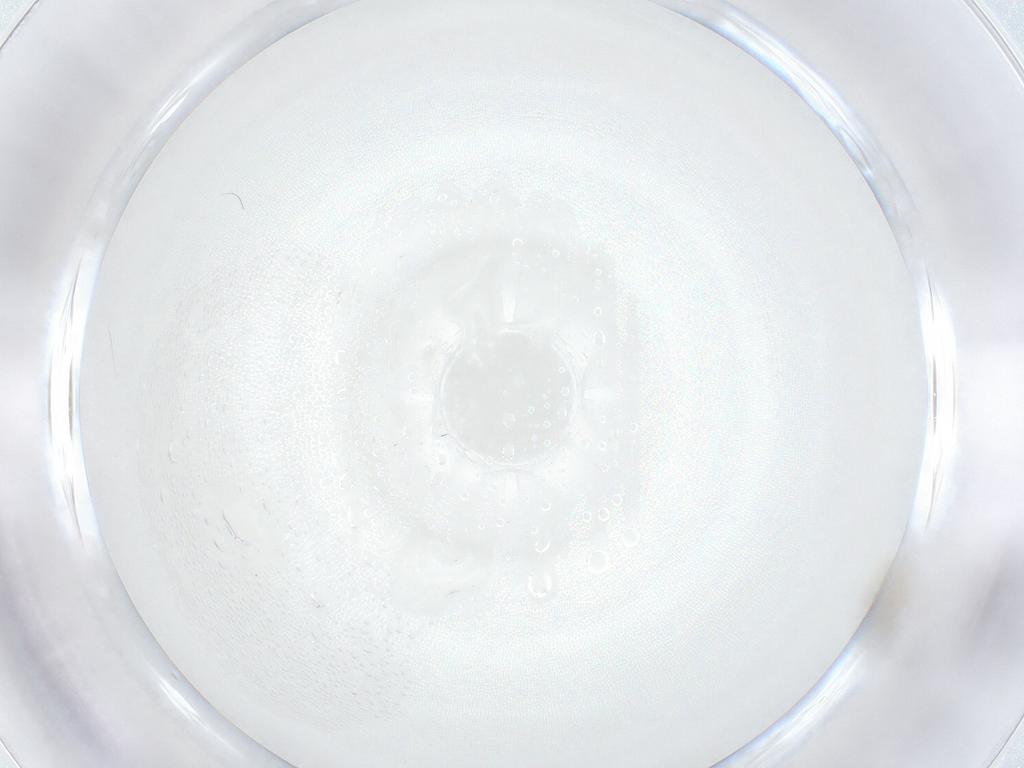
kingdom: Animalia
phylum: Arthropoda
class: Insecta
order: Diptera
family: Cecidomyiidae
